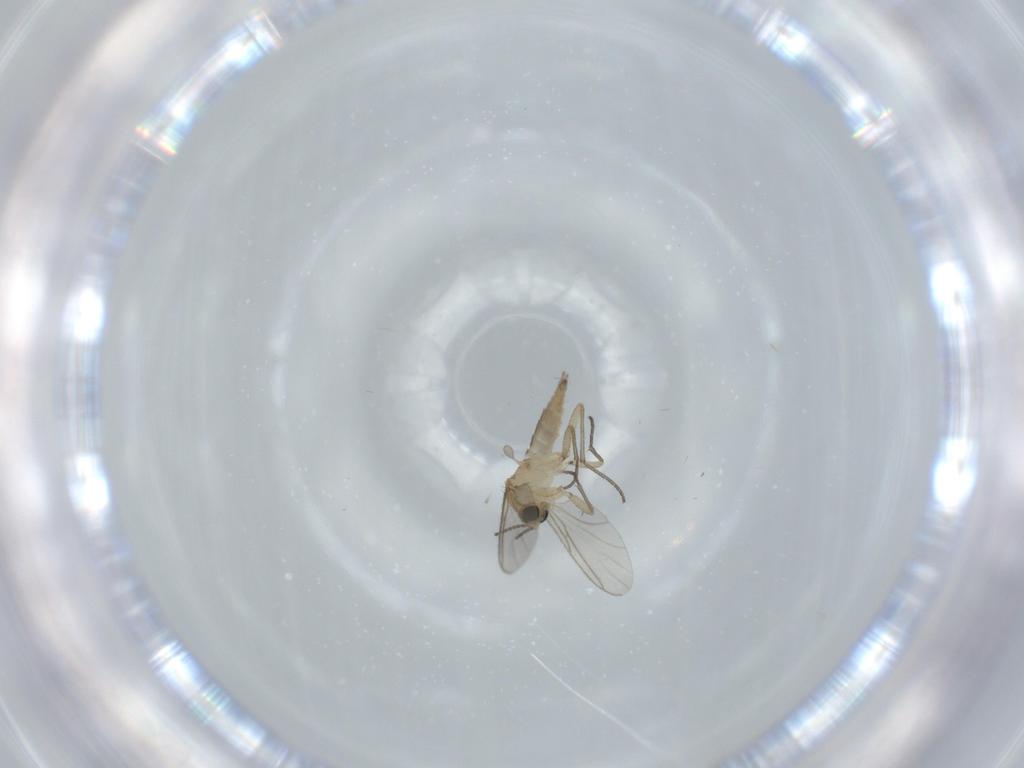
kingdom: Animalia
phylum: Arthropoda
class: Insecta
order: Diptera
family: Sciaridae
